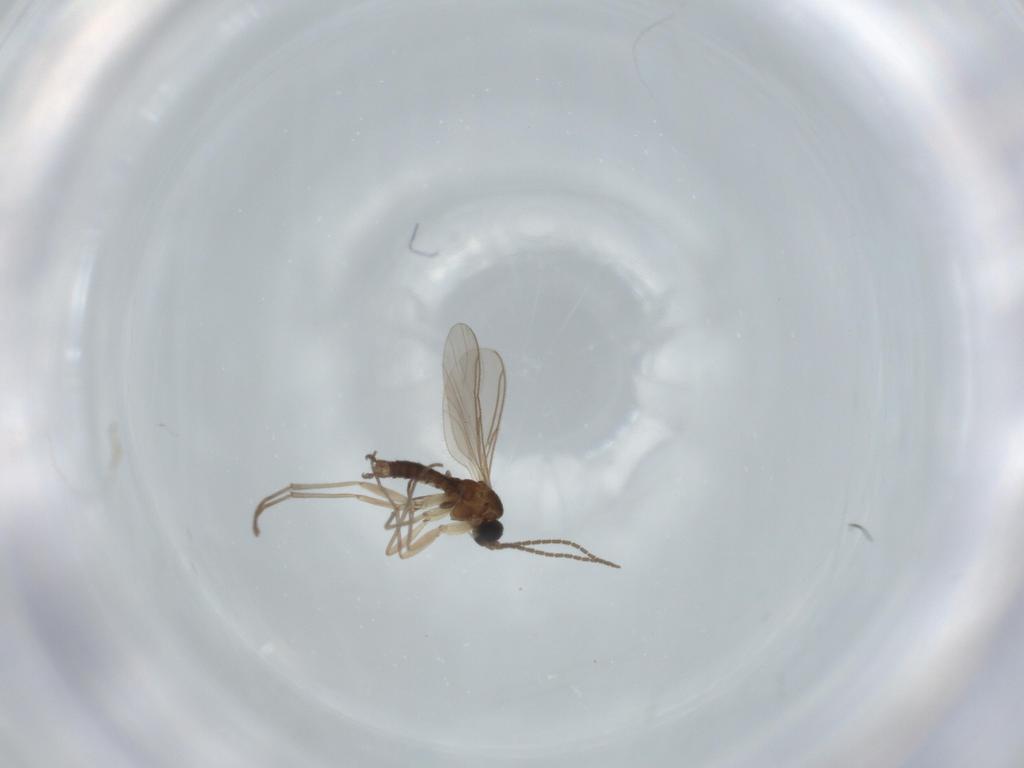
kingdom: Animalia
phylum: Arthropoda
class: Insecta
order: Diptera
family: Sciaridae
